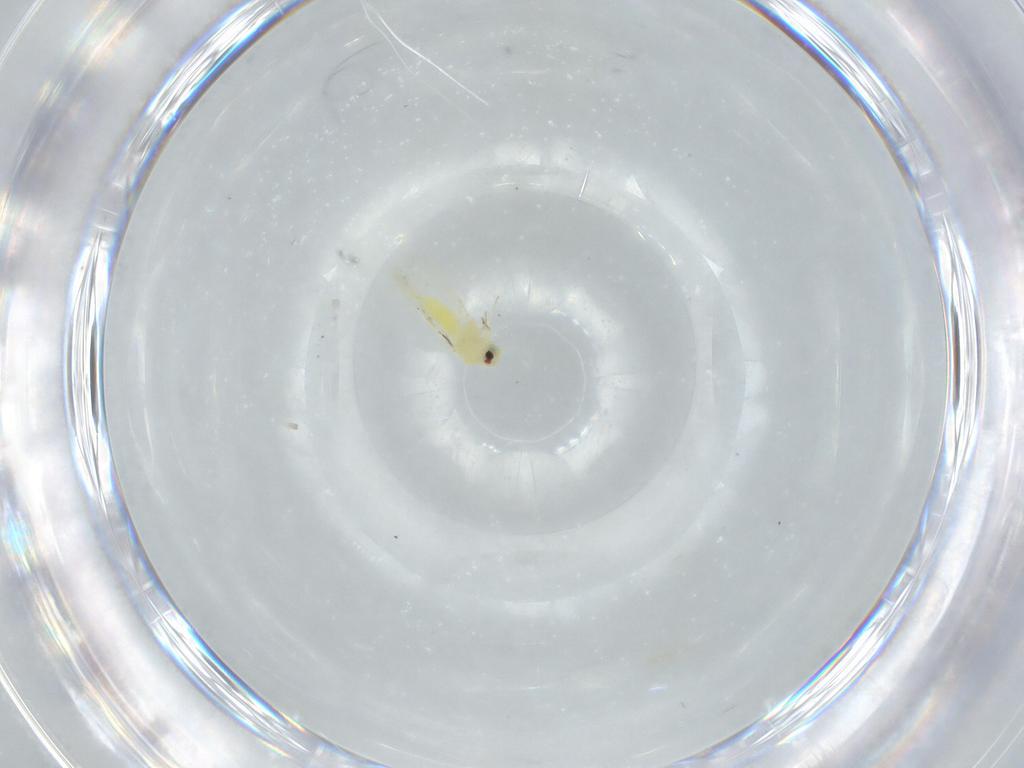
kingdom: Animalia
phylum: Arthropoda
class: Insecta
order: Hemiptera
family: Aleyrodidae
